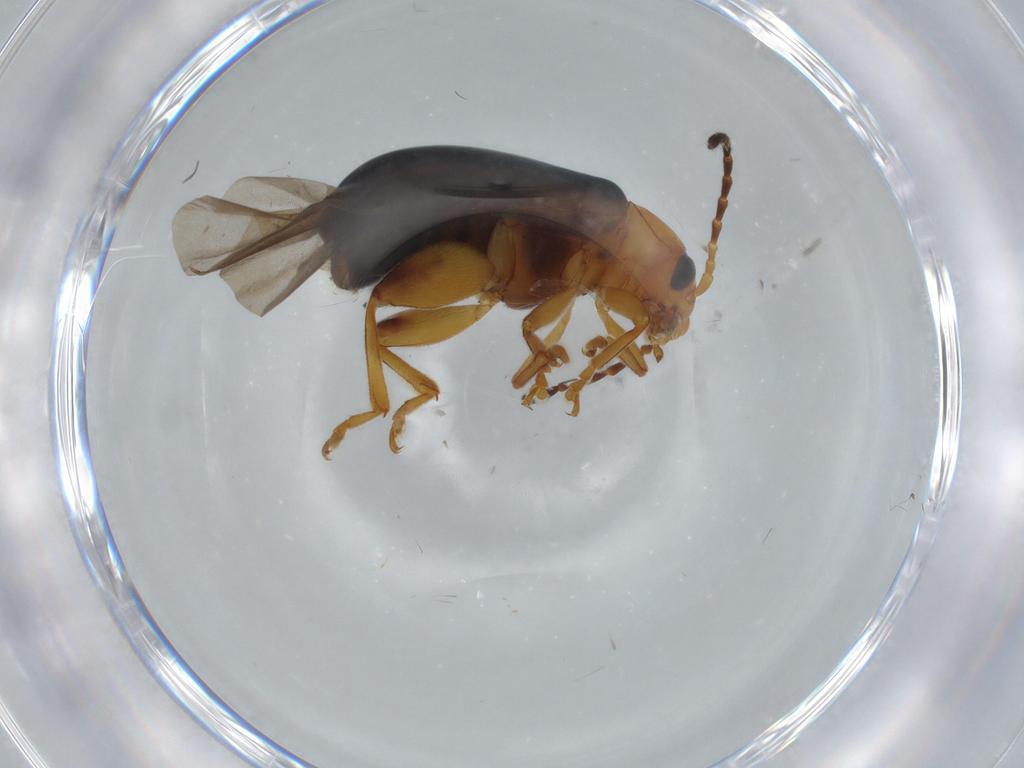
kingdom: Animalia
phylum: Arthropoda
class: Insecta
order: Coleoptera
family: Chrysomelidae
